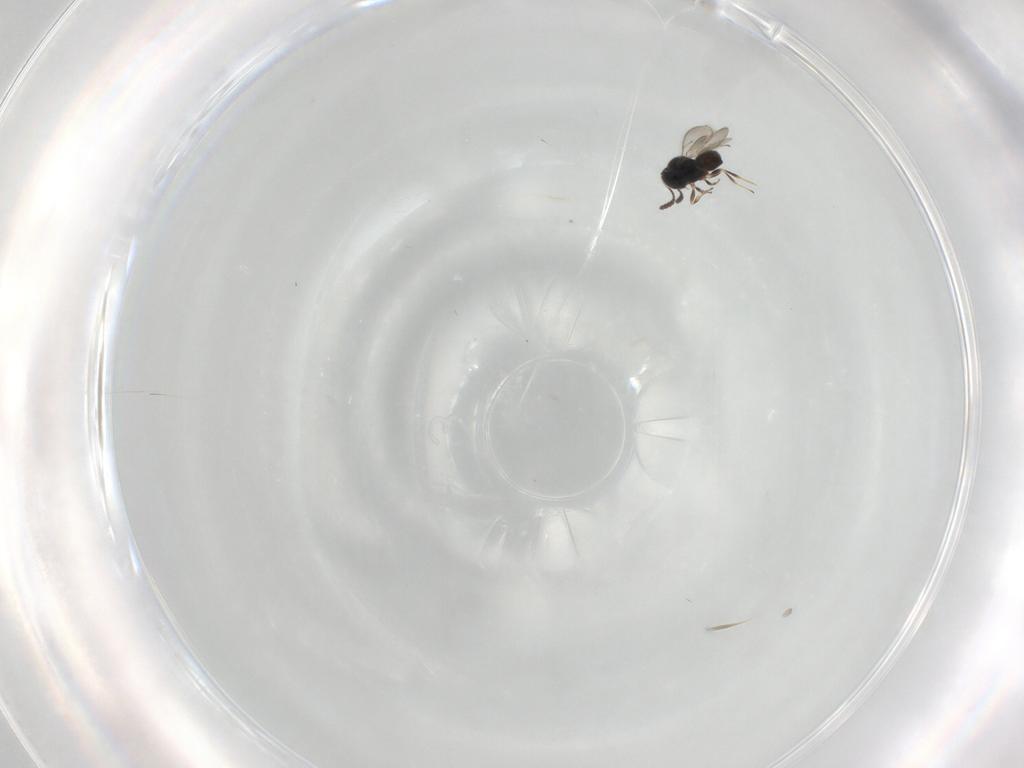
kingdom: Animalia
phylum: Arthropoda
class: Insecta
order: Hymenoptera
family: Scelionidae
